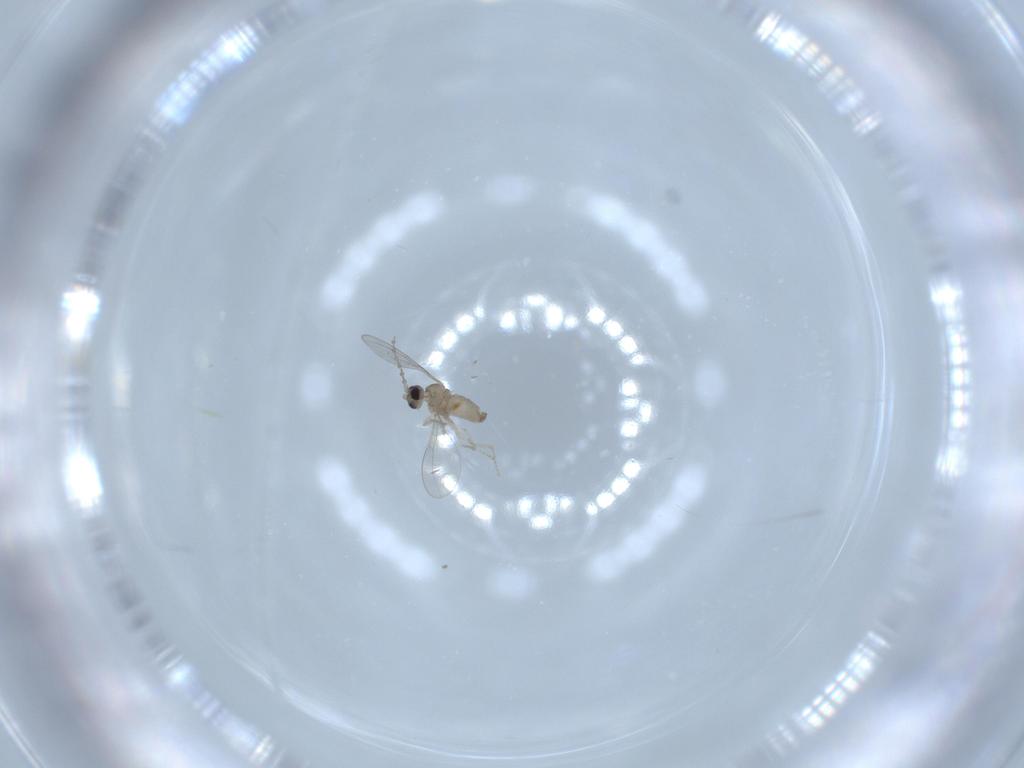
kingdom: Animalia
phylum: Arthropoda
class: Insecta
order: Diptera
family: Cecidomyiidae
